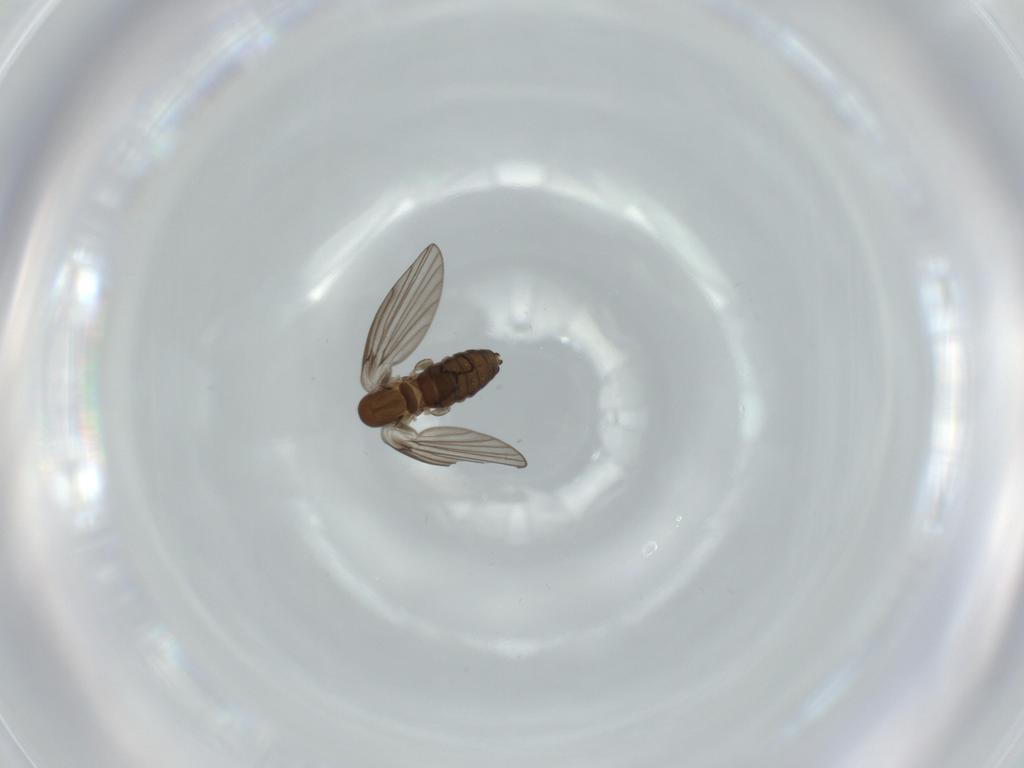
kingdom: Animalia
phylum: Arthropoda
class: Insecta
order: Diptera
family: Psychodidae
